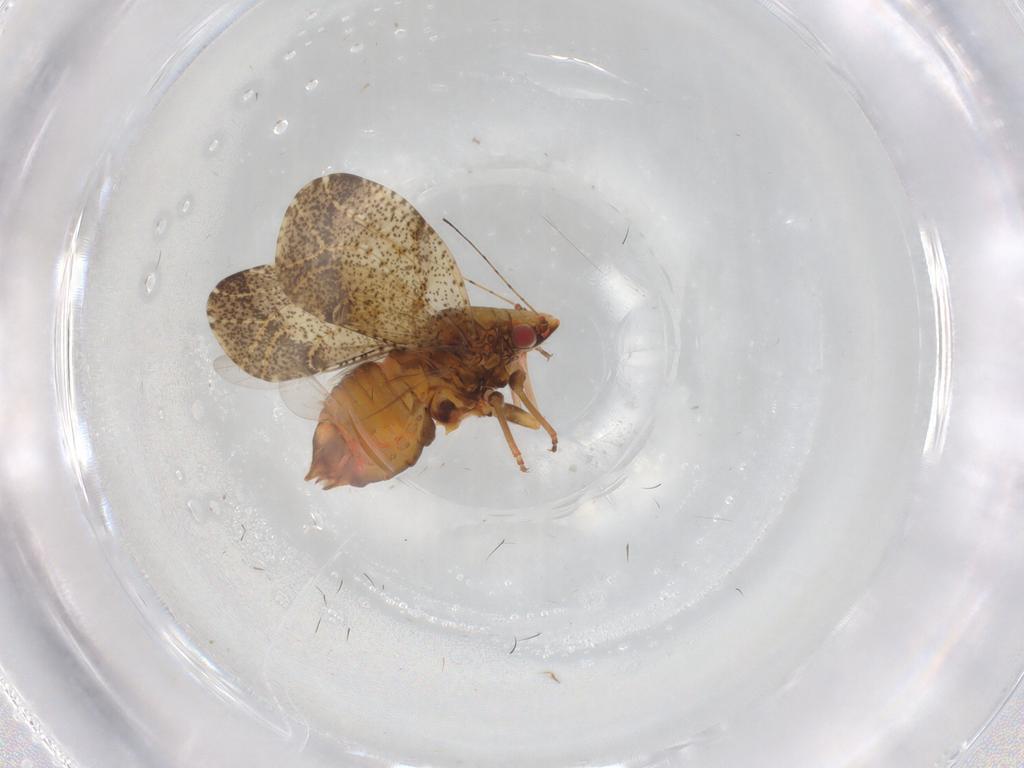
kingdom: Animalia
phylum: Arthropoda
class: Insecta
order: Hemiptera
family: Psyllidae
